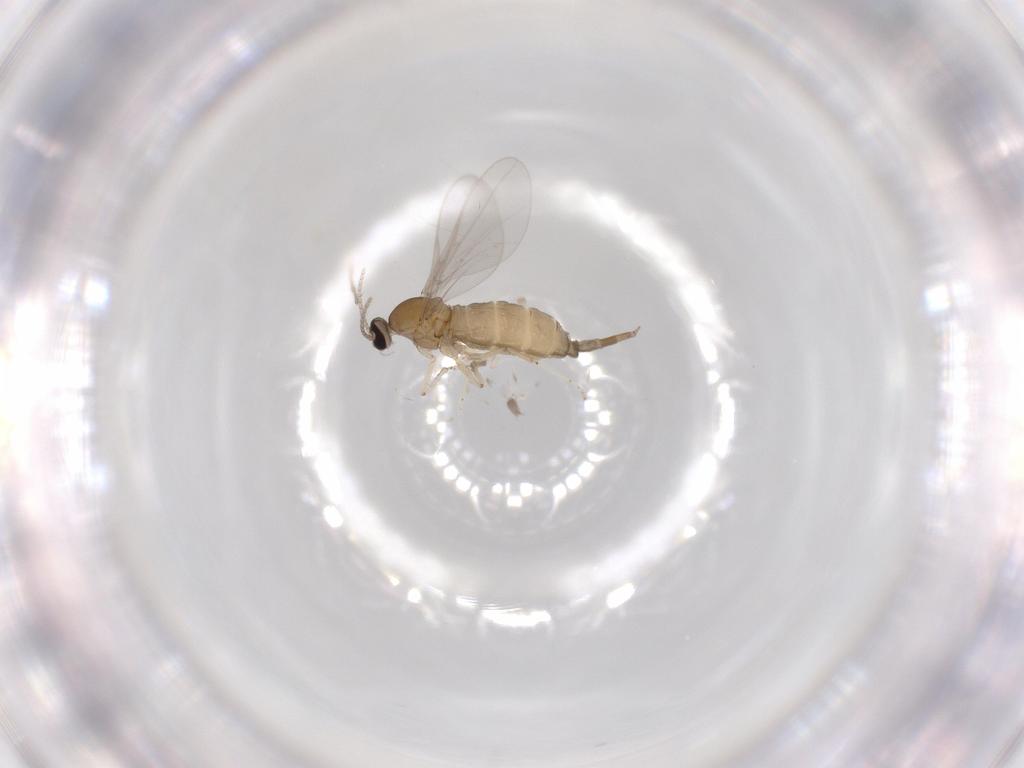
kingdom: Animalia
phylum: Arthropoda
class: Insecta
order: Diptera
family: Cecidomyiidae
